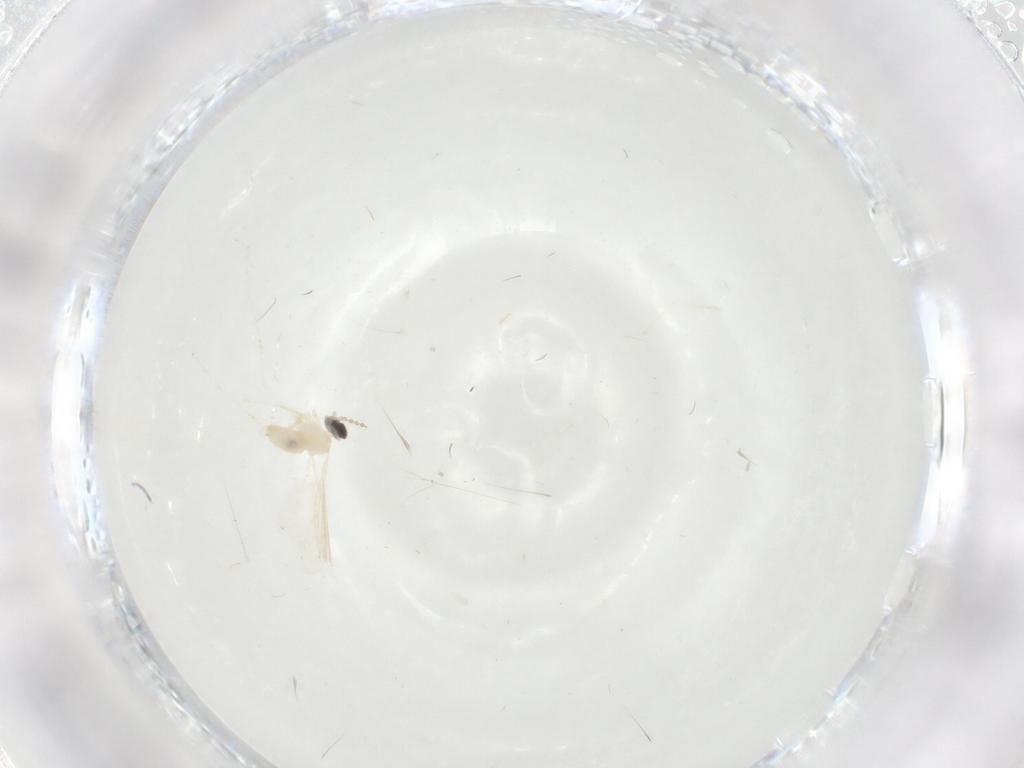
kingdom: Animalia
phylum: Arthropoda
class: Insecta
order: Diptera
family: Cecidomyiidae
